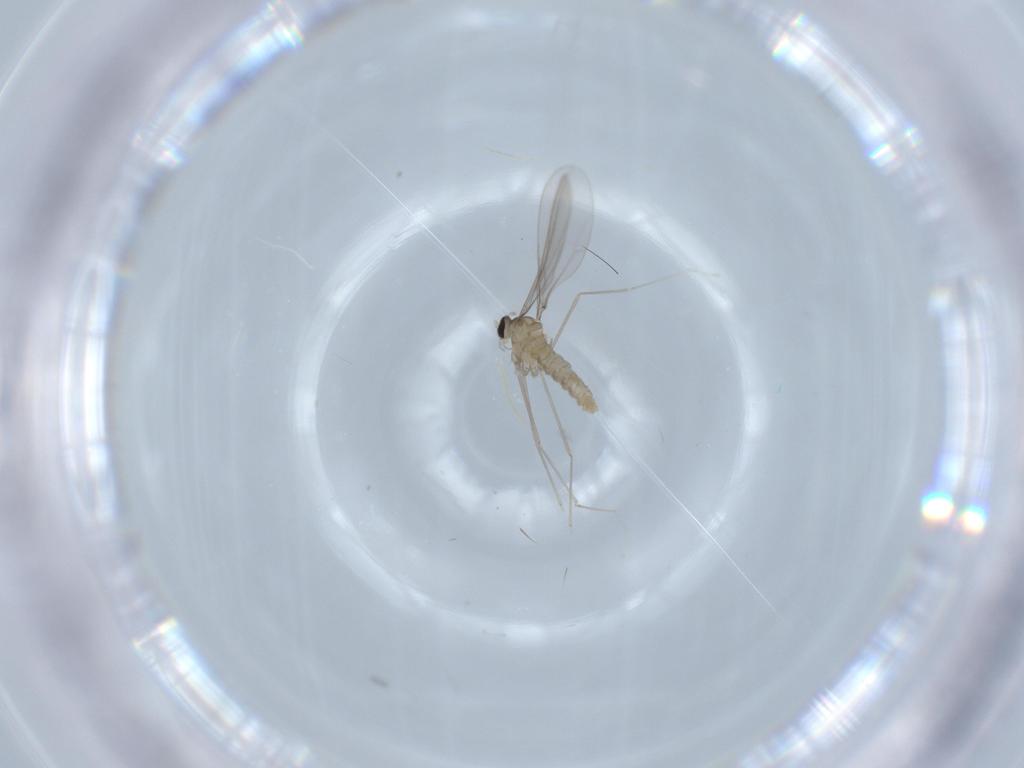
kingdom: Animalia
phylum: Arthropoda
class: Insecta
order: Diptera
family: Cecidomyiidae
